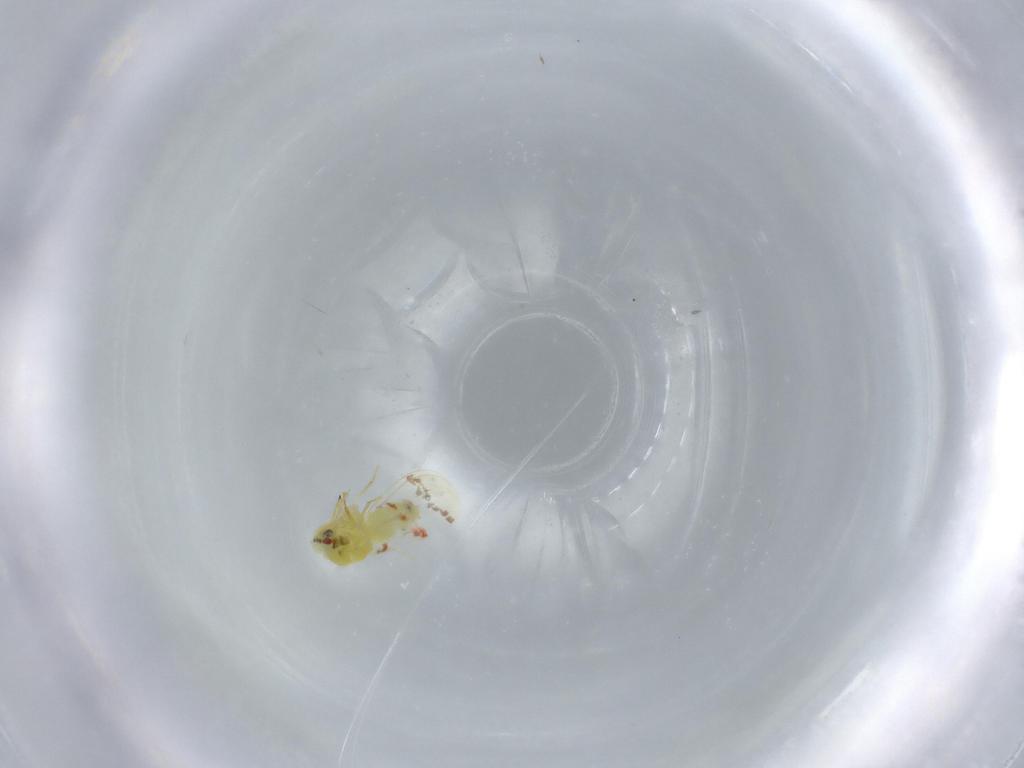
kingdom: Animalia
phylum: Arthropoda
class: Insecta
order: Hemiptera
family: Aleyrodidae
